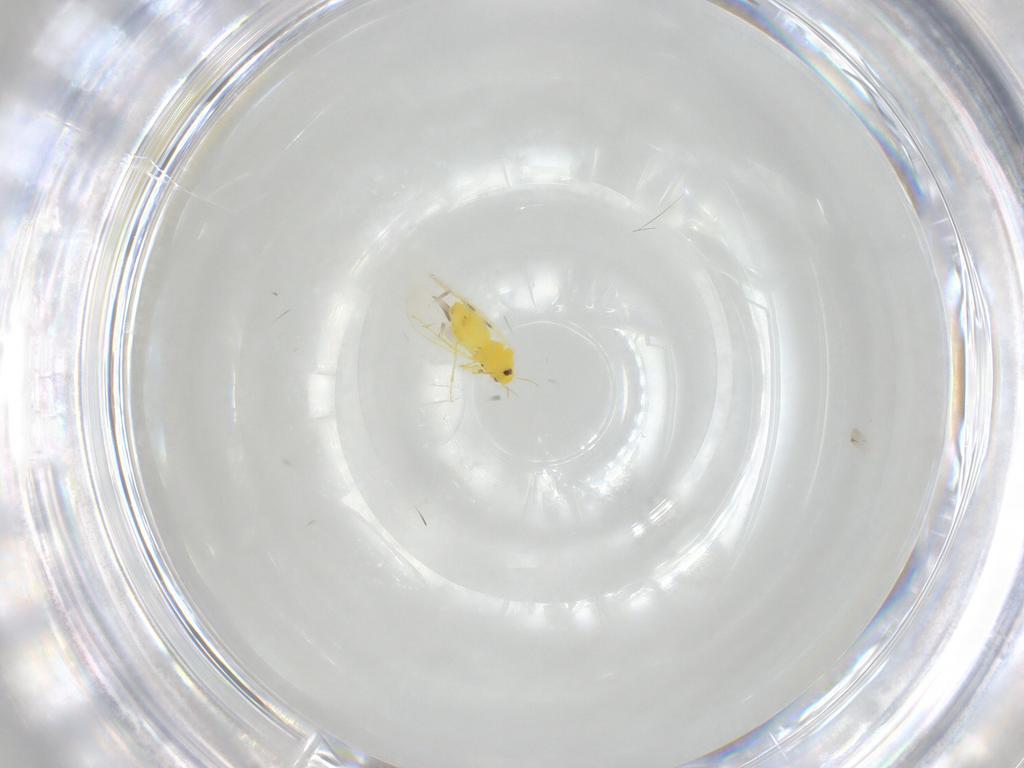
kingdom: Animalia
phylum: Arthropoda
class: Insecta
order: Hemiptera
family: Aleyrodidae
